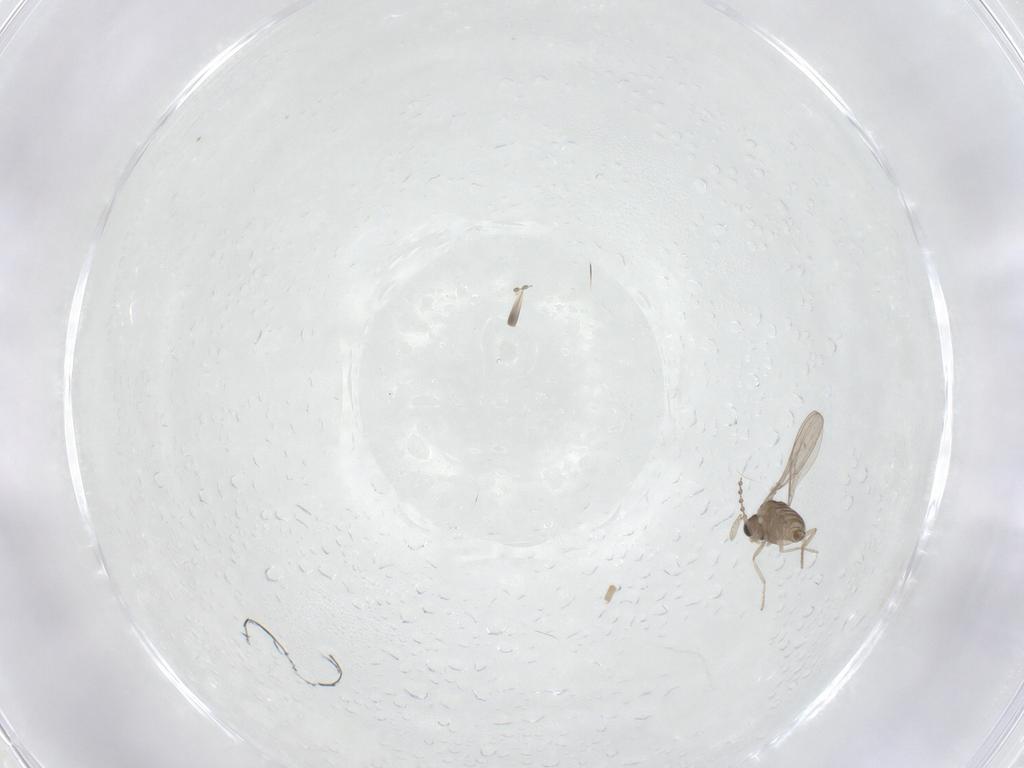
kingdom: Animalia
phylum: Arthropoda
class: Insecta
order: Diptera
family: Cecidomyiidae
